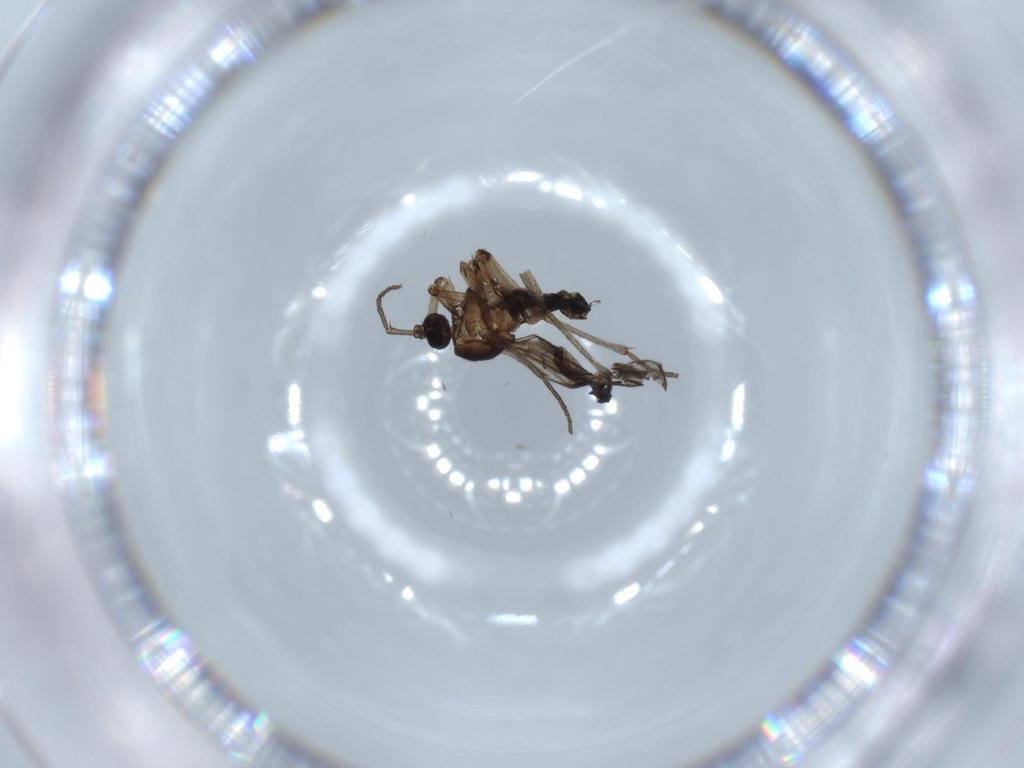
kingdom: Animalia
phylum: Arthropoda
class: Insecta
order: Diptera
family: Sciaridae
